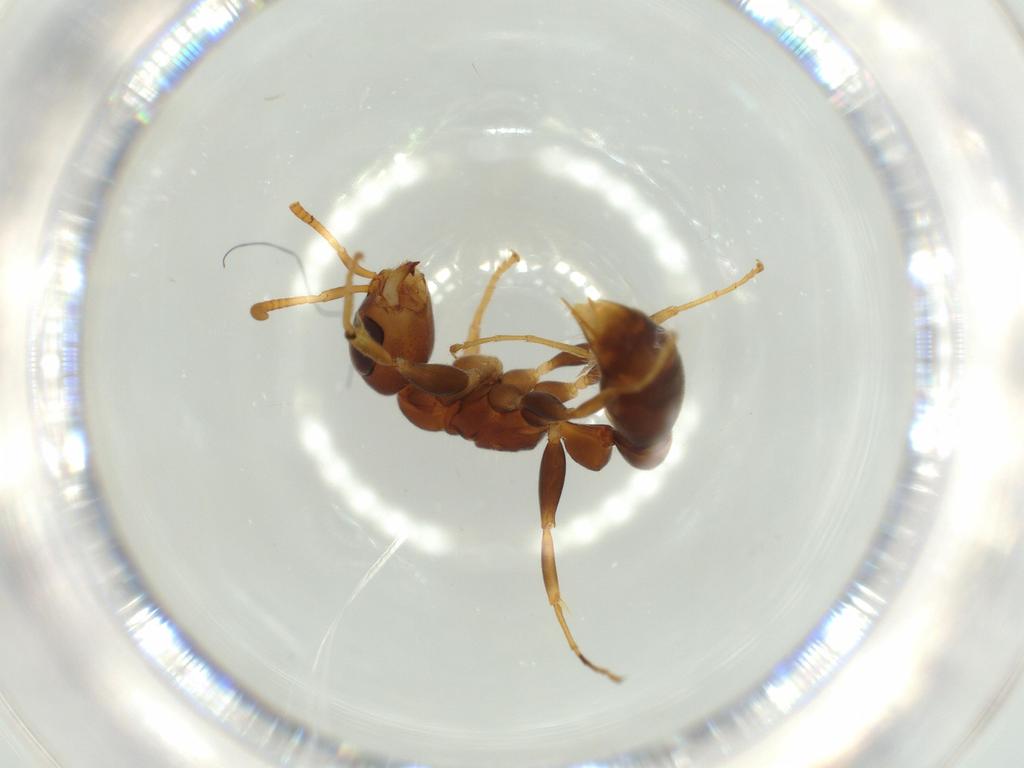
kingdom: Animalia
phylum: Arthropoda
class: Insecta
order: Hymenoptera
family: Formicidae
